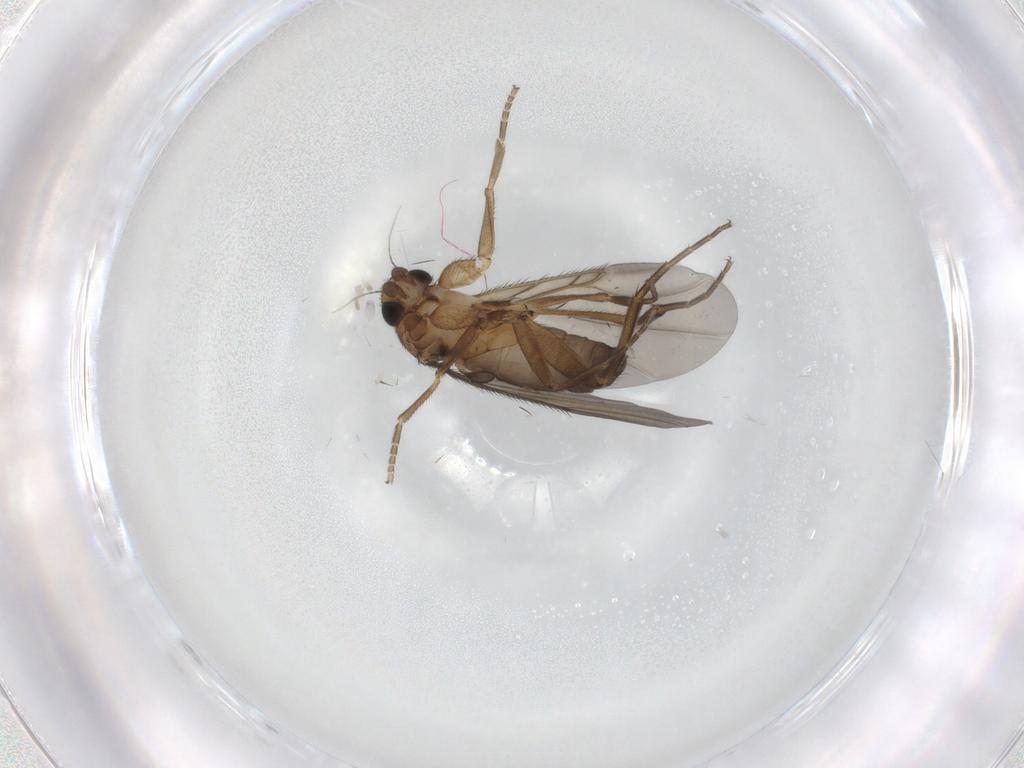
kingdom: Animalia
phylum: Arthropoda
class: Insecta
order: Diptera
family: Phoridae
